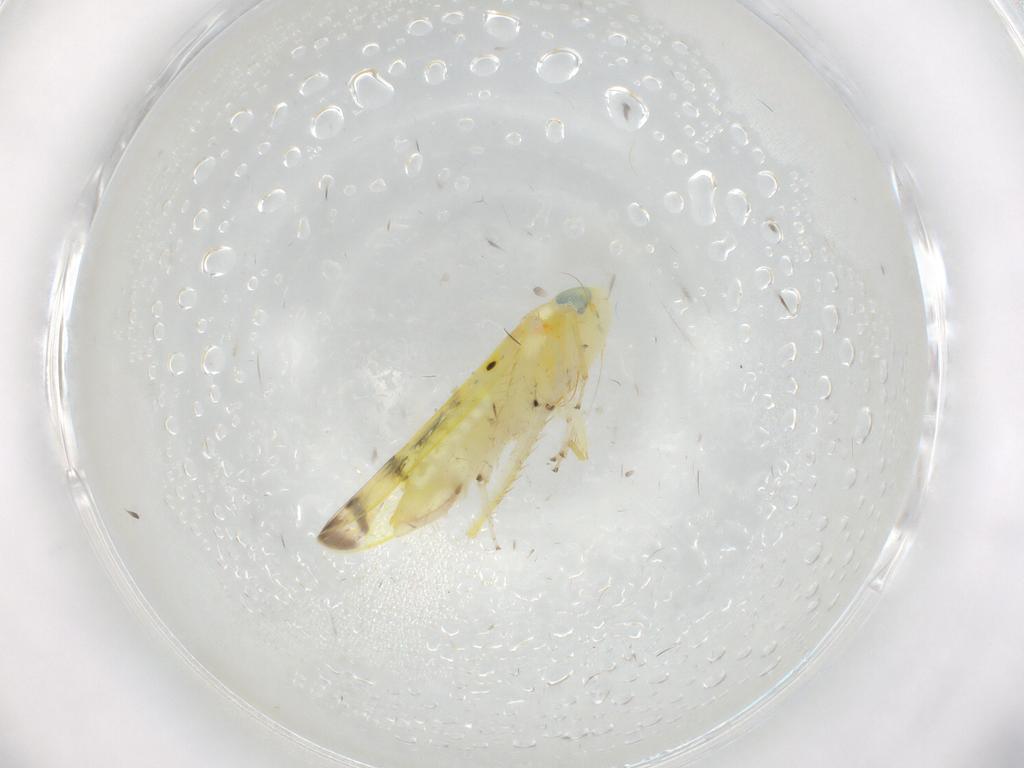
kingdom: Animalia
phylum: Arthropoda
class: Insecta
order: Hemiptera
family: Cicadellidae
